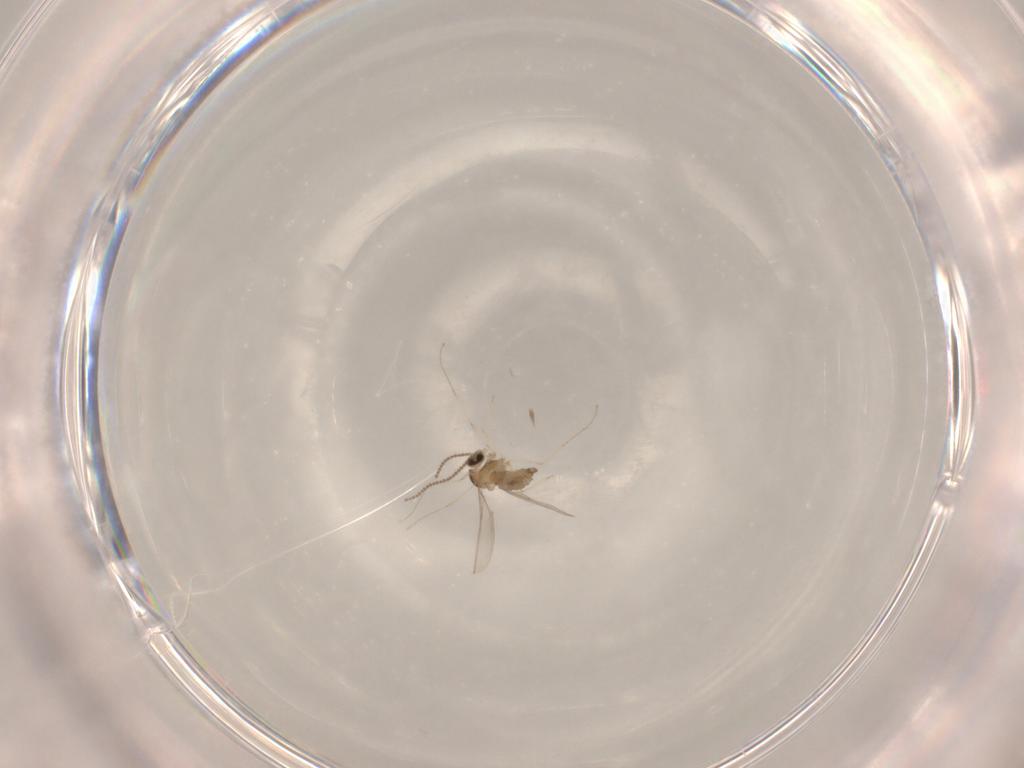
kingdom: Animalia
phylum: Arthropoda
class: Insecta
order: Diptera
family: Cecidomyiidae
